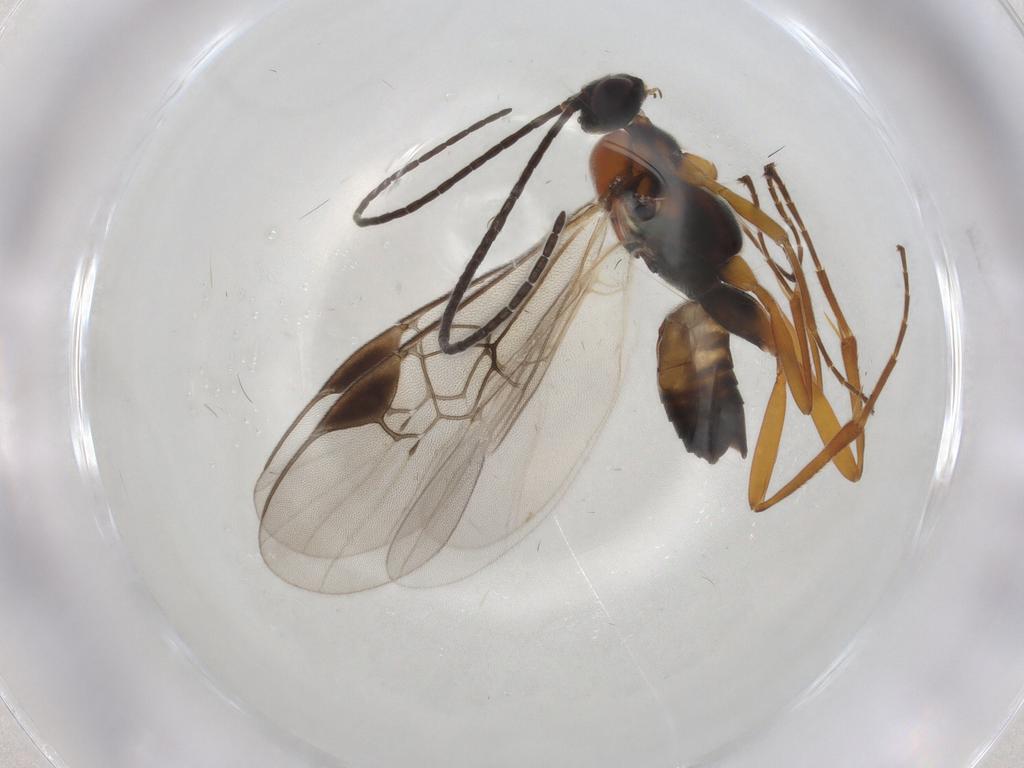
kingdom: Animalia
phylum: Arthropoda
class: Insecta
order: Hymenoptera
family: Braconidae
